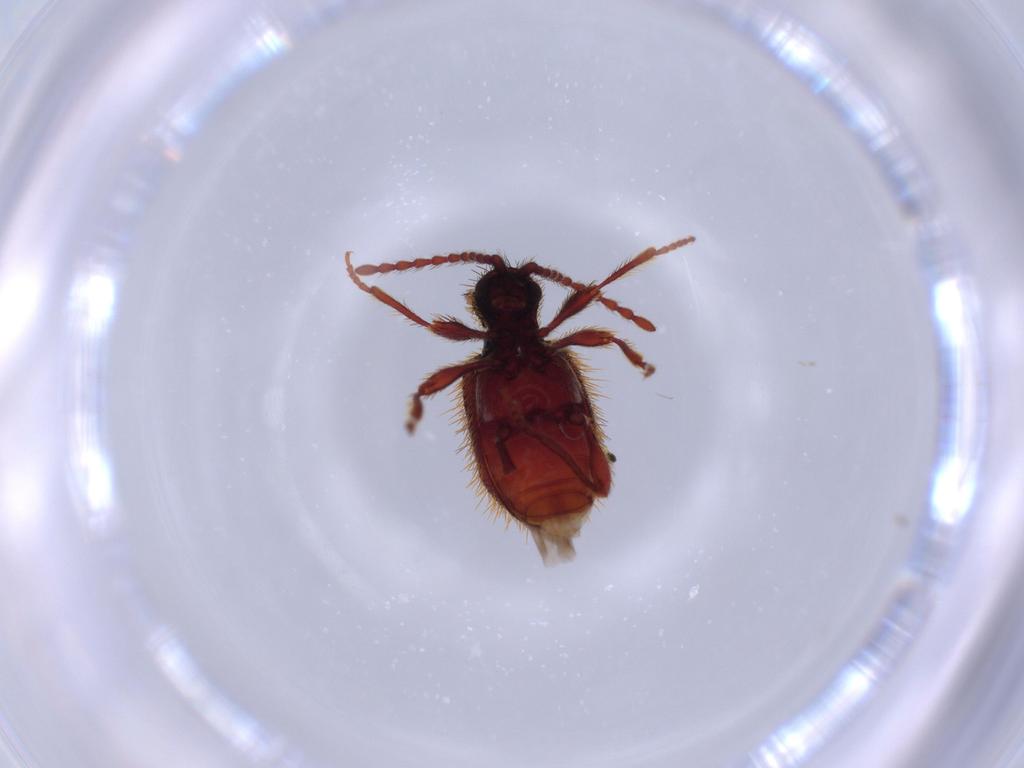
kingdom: Animalia
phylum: Arthropoda
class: Insecta
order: Coleoptera
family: Ptinidae
